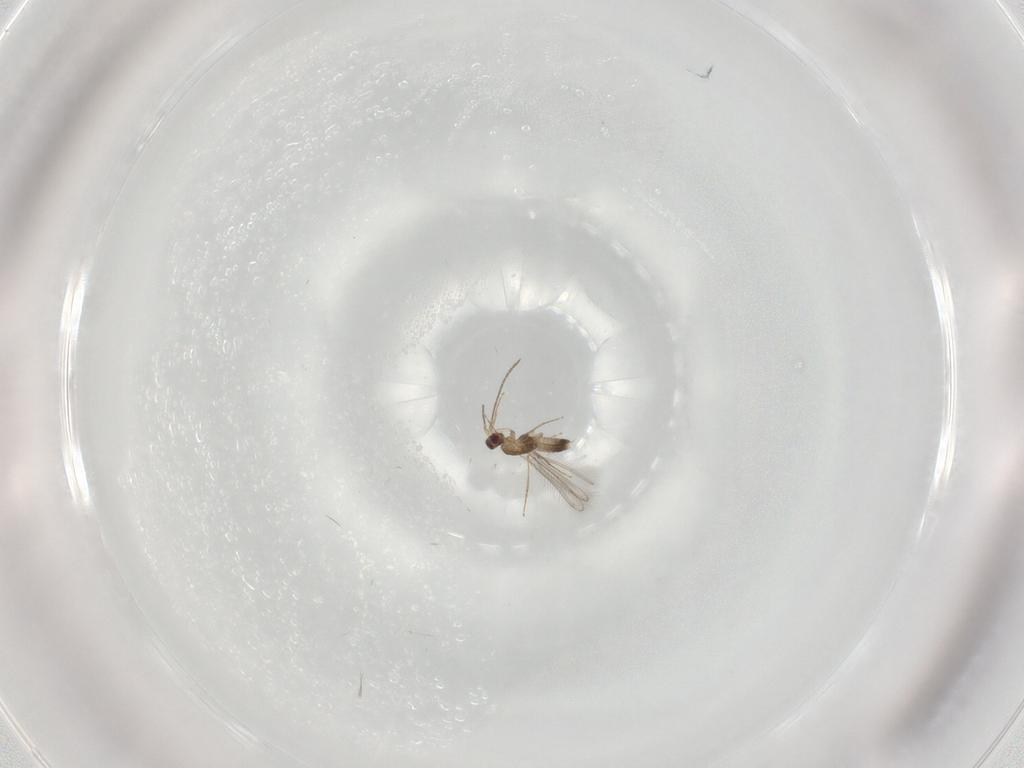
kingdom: Animalia
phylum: Arthropoda
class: Insecta
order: Hymenoptera
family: Mymaridae
